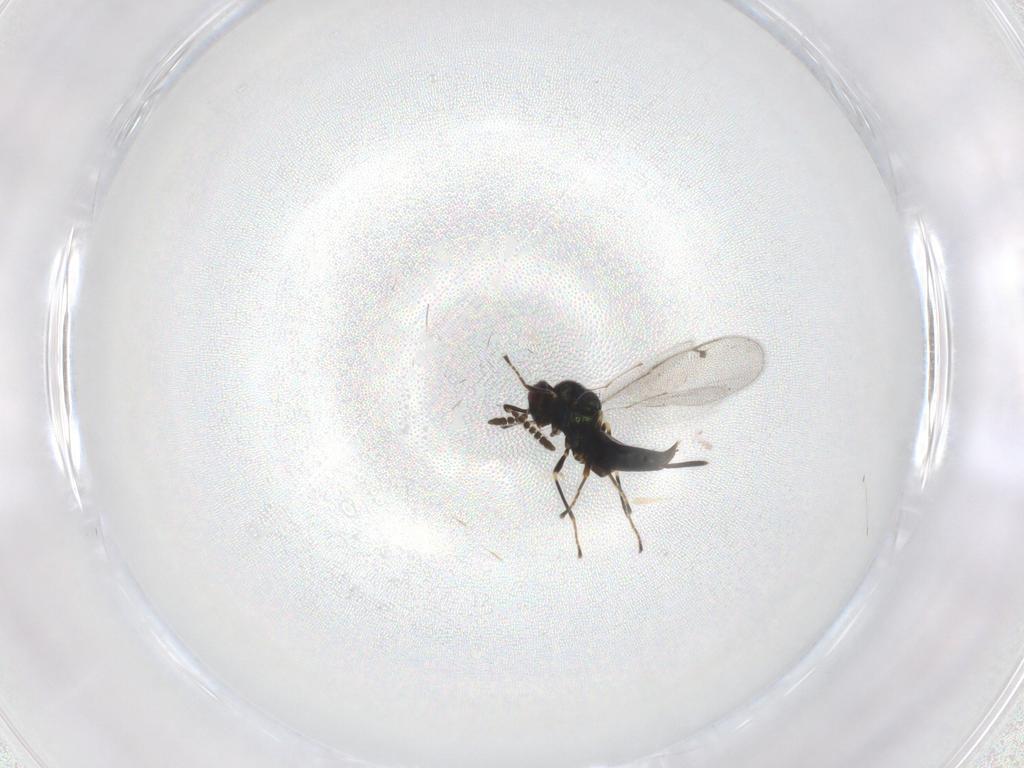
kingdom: Animalia
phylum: Arthropoda
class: Insecta
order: Hymenoptera
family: Pirenidae
